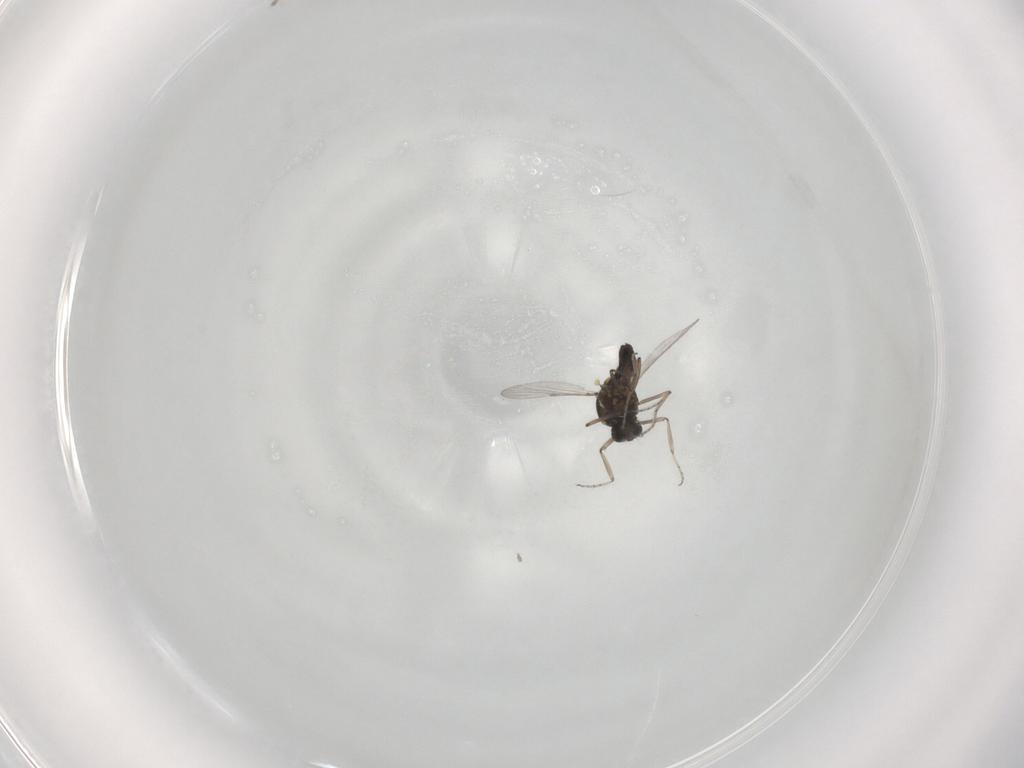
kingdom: Animalia
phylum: Arthropoda
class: Insecta
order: Diptera
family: Ceratopogonidae
